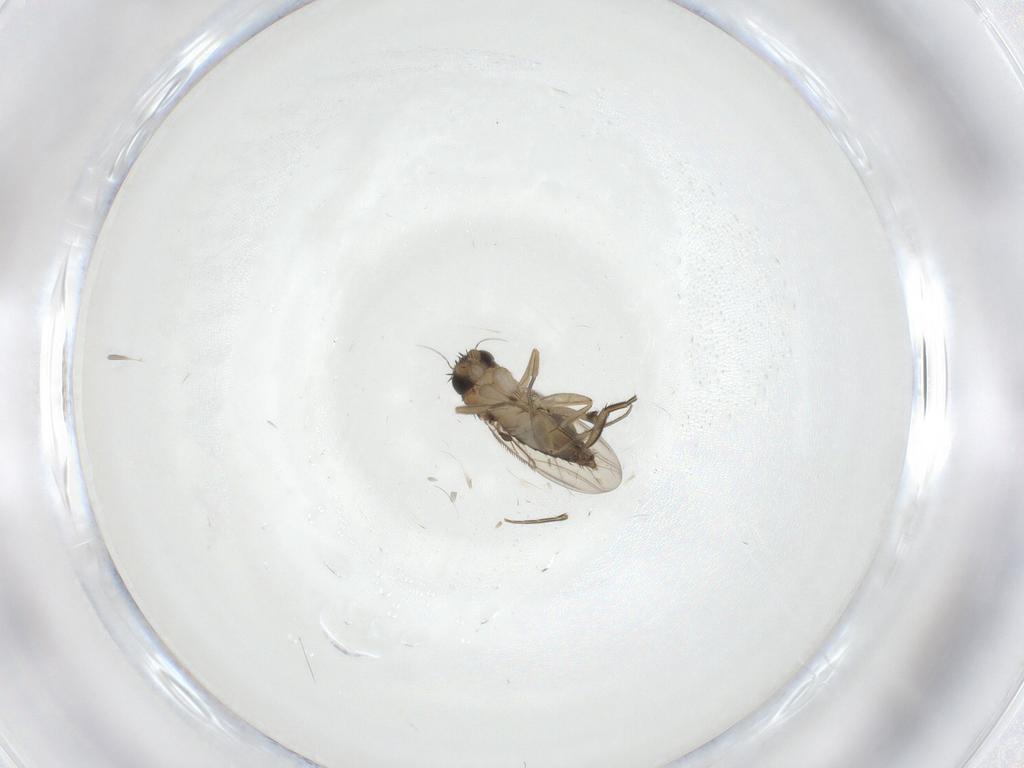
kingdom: Animalia
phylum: Arthropoda
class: Insecta
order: Diptera
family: Phoridae
